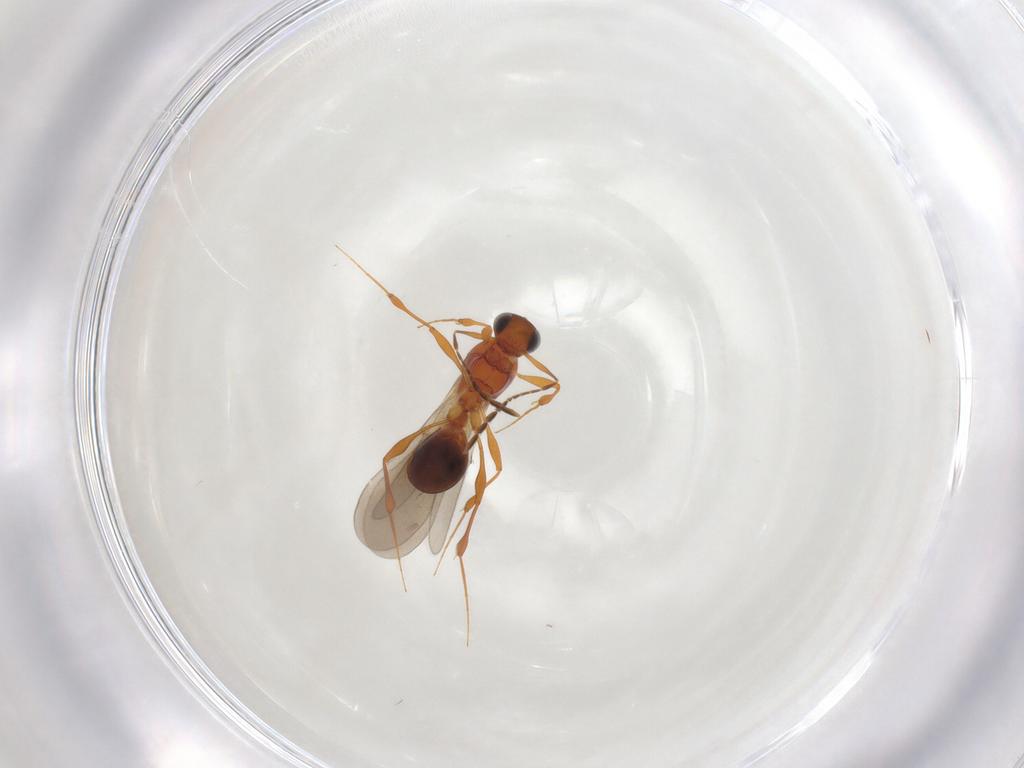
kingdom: Animalia
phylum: Arthropoda
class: Insecta
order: Hymenoptera
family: Platygastridae
